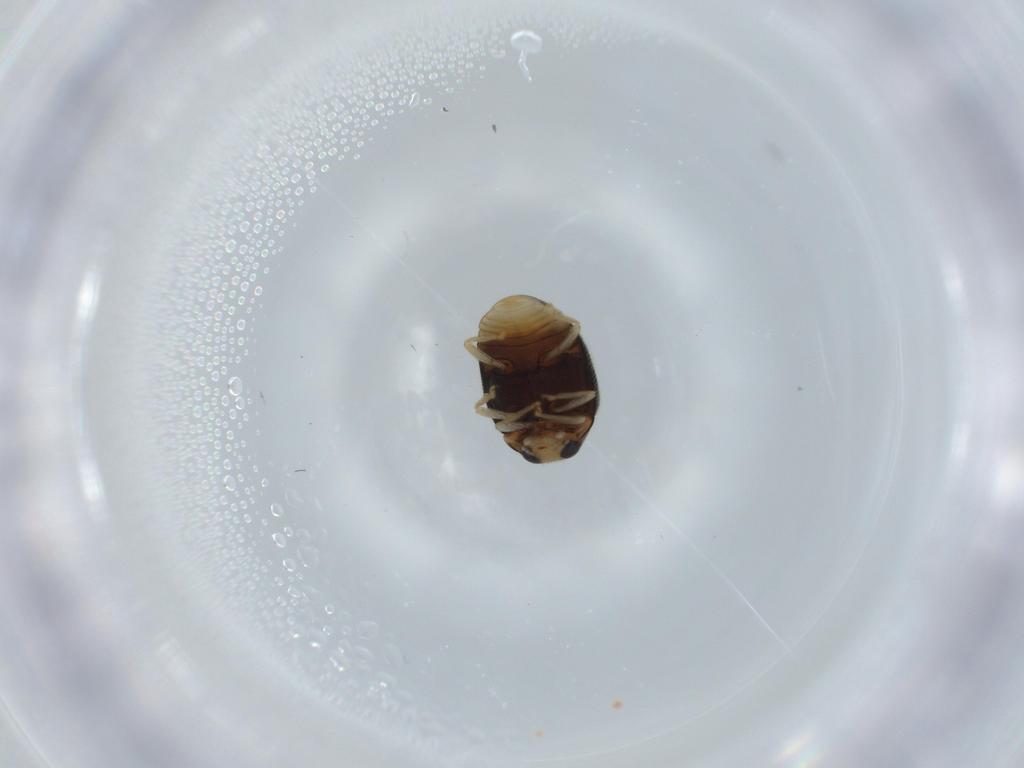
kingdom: Animalia
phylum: Arthropoda
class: Insecta
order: Coleoptera
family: Coccinellidae
